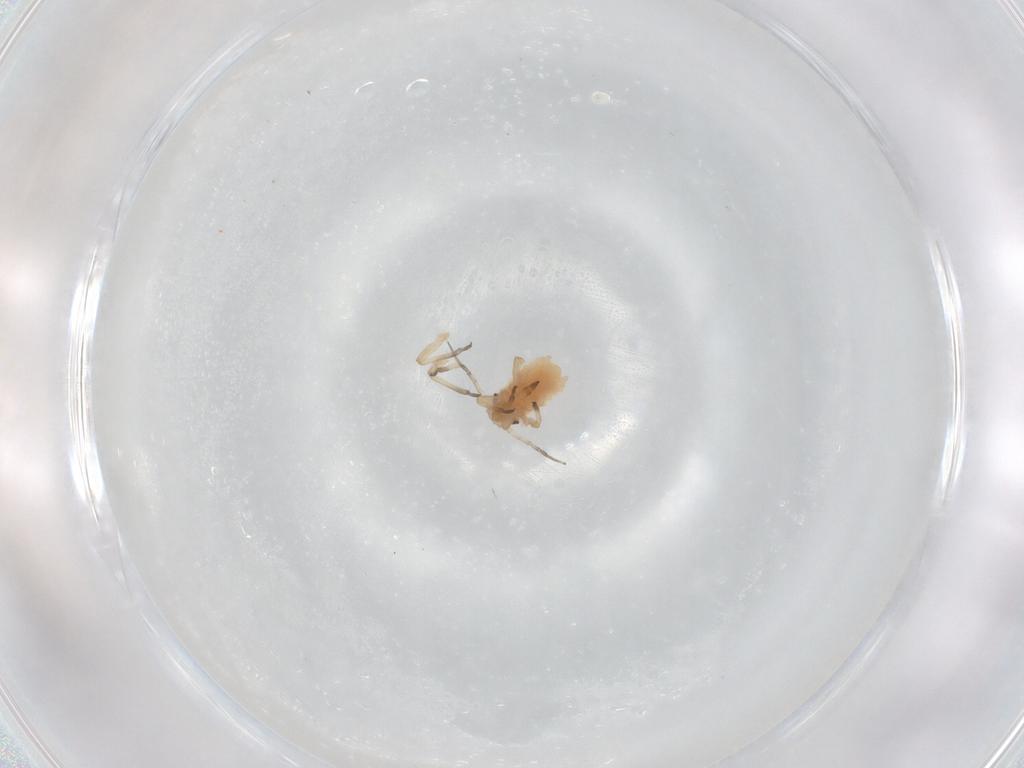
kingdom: Animalia
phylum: Arthropoda
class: Insecta
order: Hemiptera
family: Aphididae
